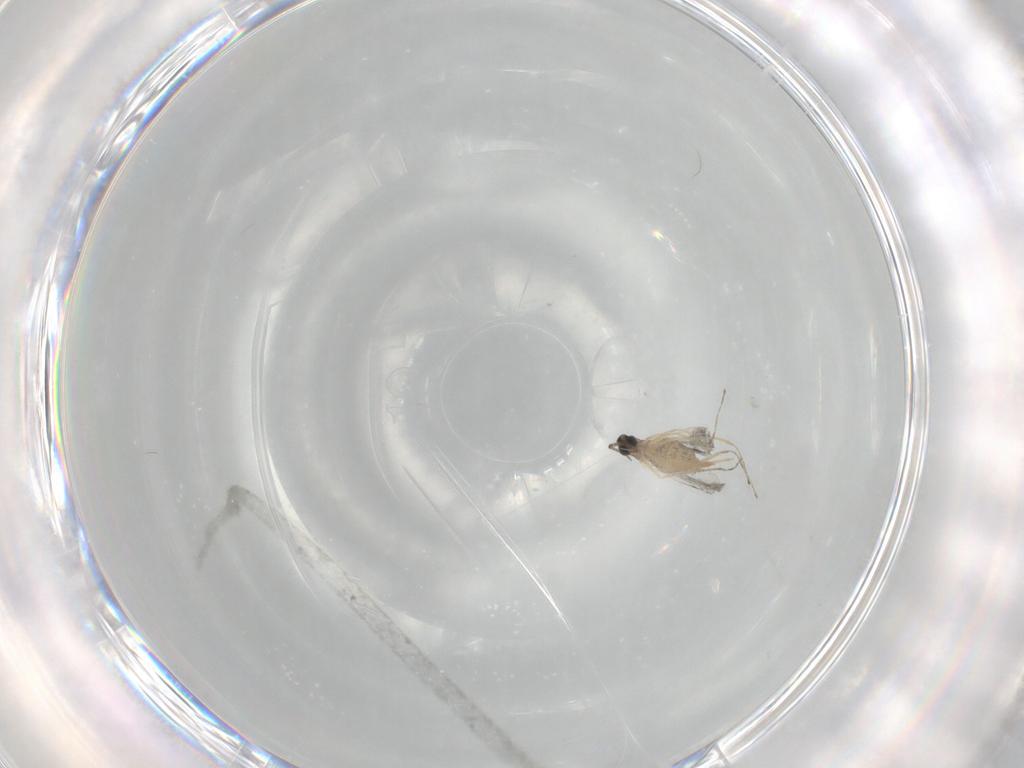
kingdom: Animalia
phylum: Arthropoda
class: Insecta
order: Diptera
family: Cecidomyiidae
